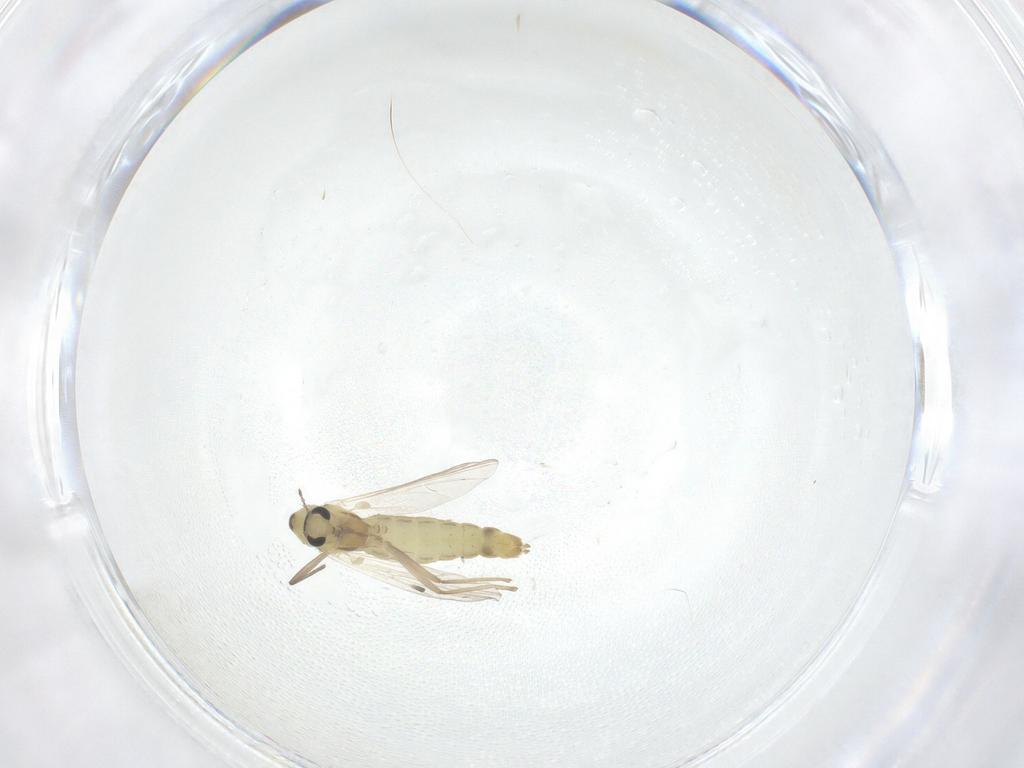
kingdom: Animalia
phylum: Arthropoda
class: Insecta
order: Diptera
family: Chironomidae
